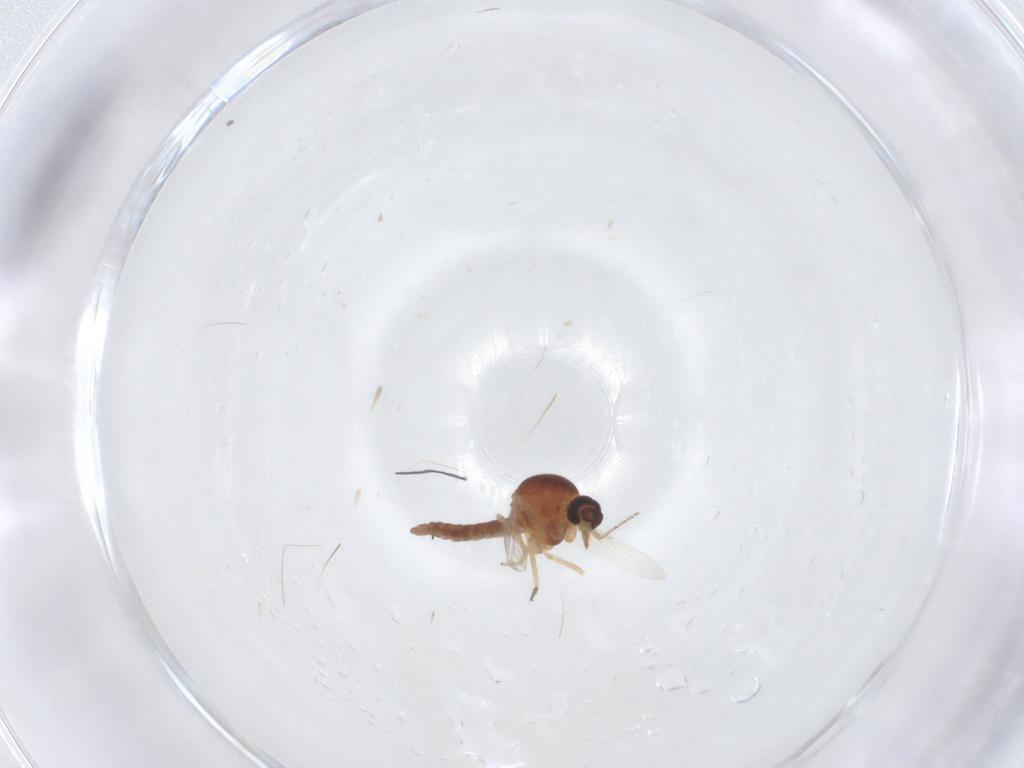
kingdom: Animalia
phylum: Arthropoda
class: Insecta
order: Diptera
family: Ceratopogonidae
